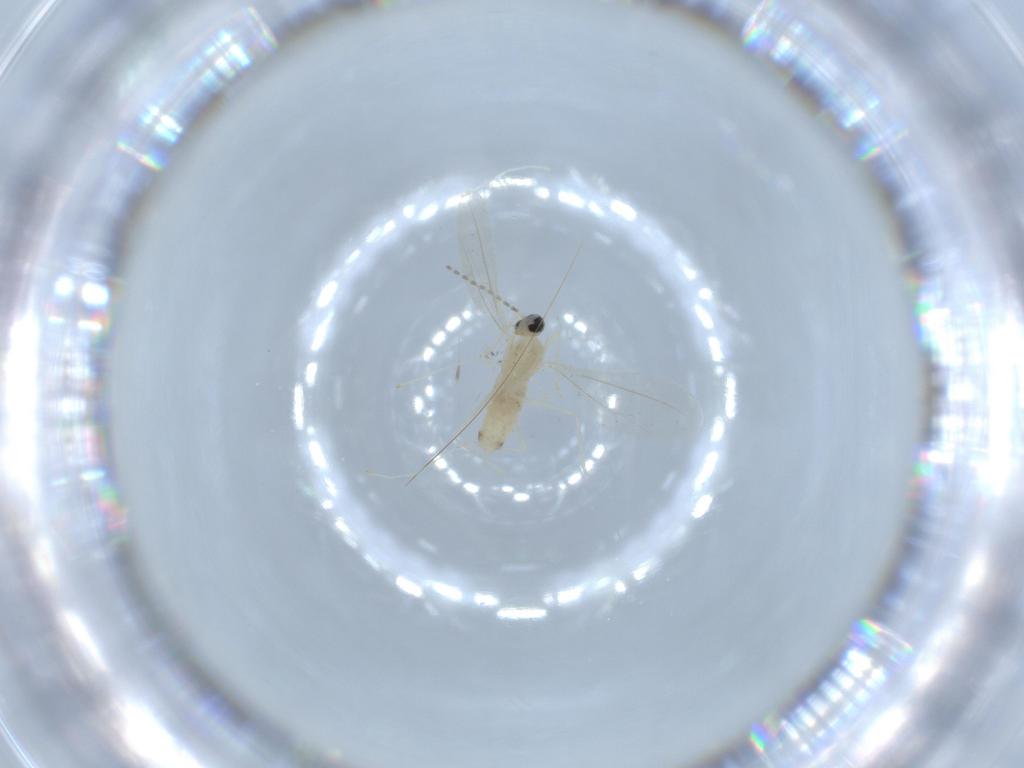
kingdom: Animalia
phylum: Arthropoda
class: Insecta
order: Diptera
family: Cecidomyiidae
